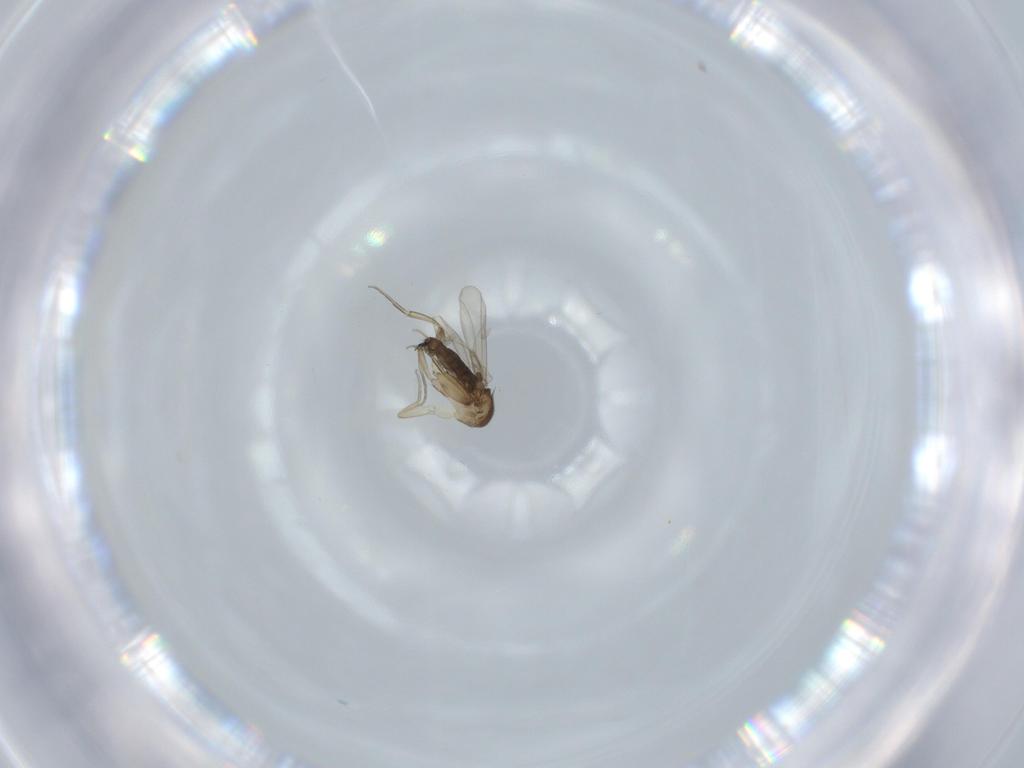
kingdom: Animalia
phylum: Arthropoda
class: Insecta
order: Diptera
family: Phoridae
